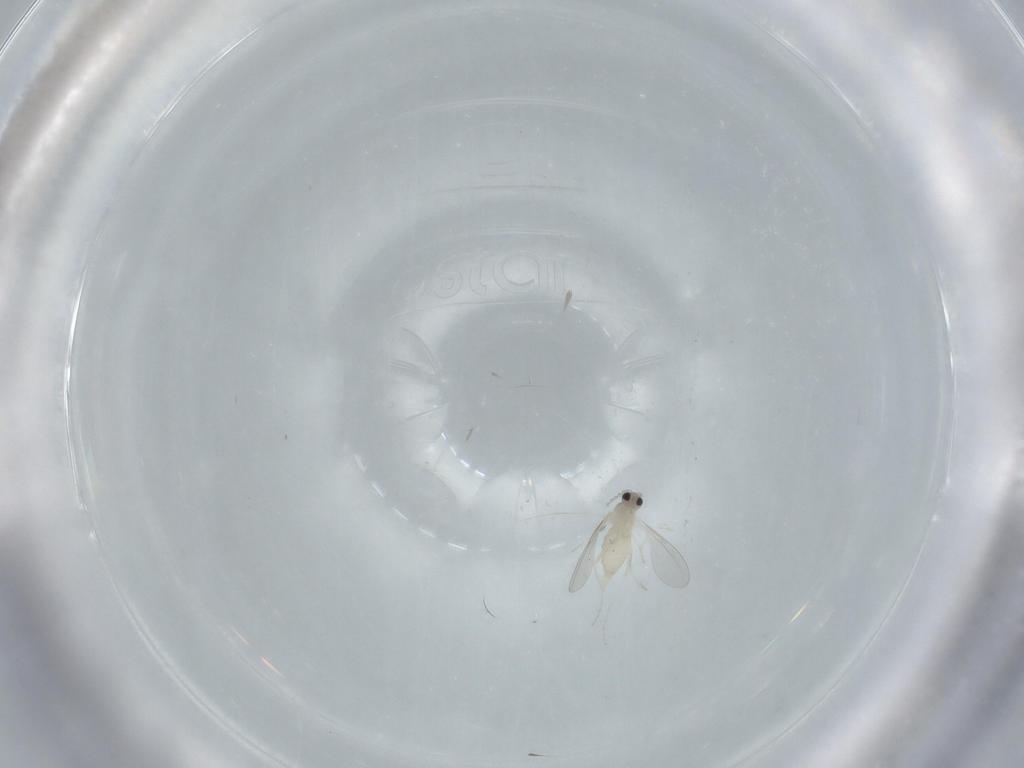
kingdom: Animalia
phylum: Arthropoda
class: Insecta
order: Diptera
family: Cecidomyiidae
